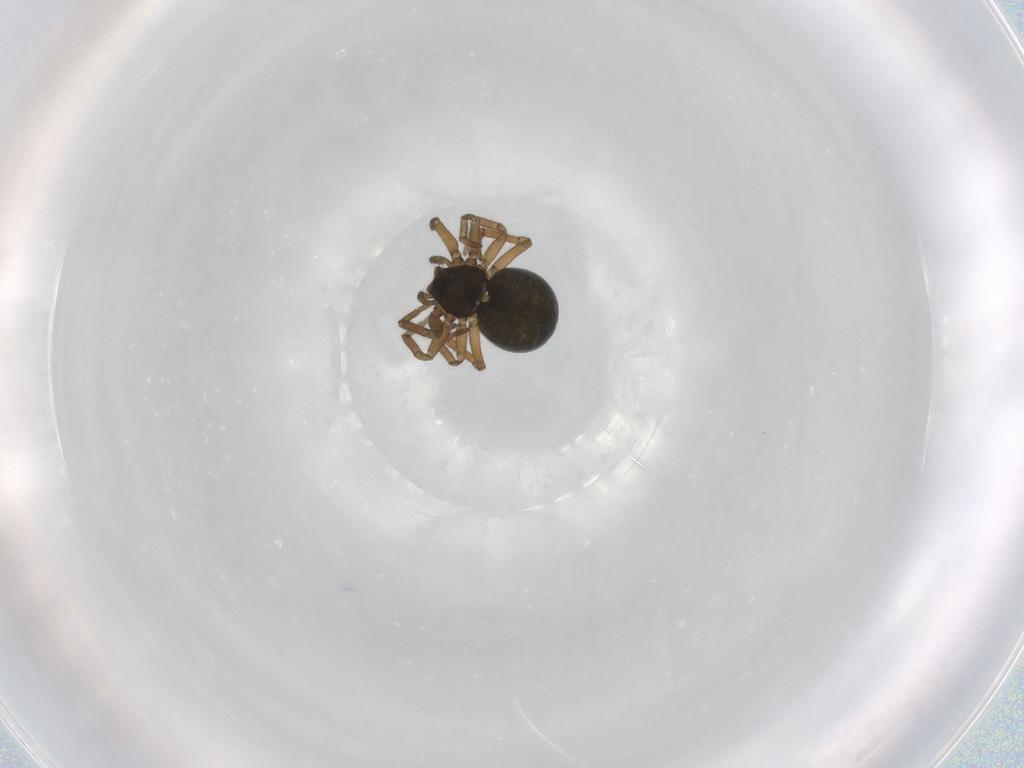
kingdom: Animalia
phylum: Arthropoda
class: Arachnida
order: Araneae
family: Linyphiidae
